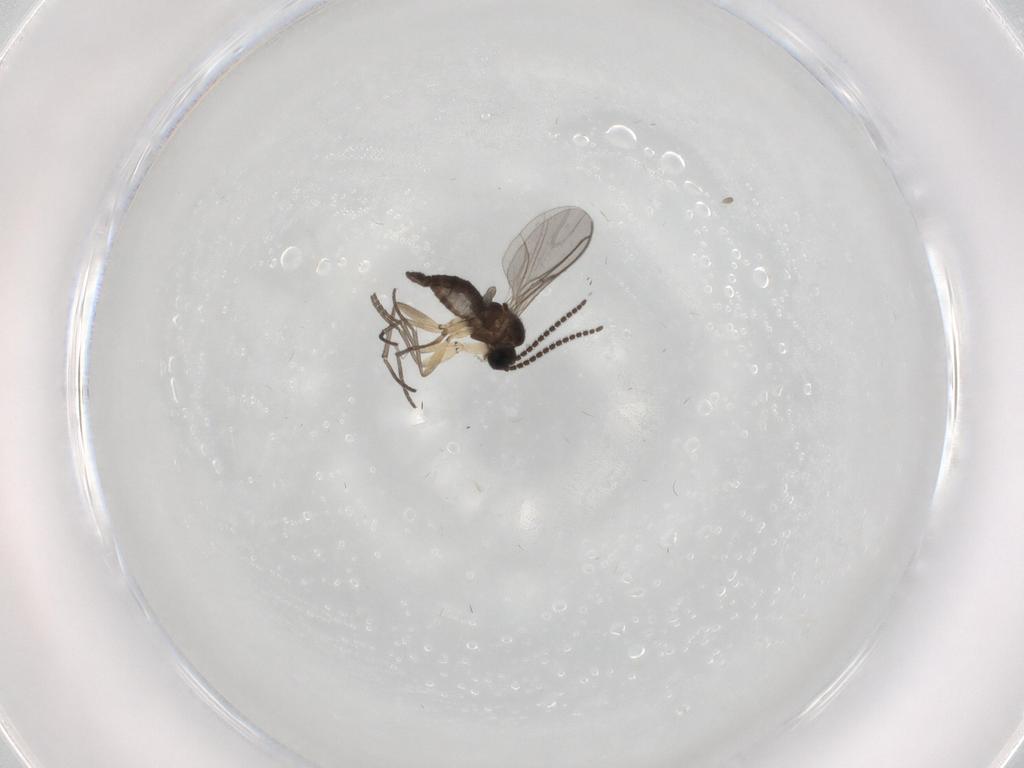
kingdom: Animalia
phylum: Arthropoda
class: Insecta
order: Diptera
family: Sciaridae
